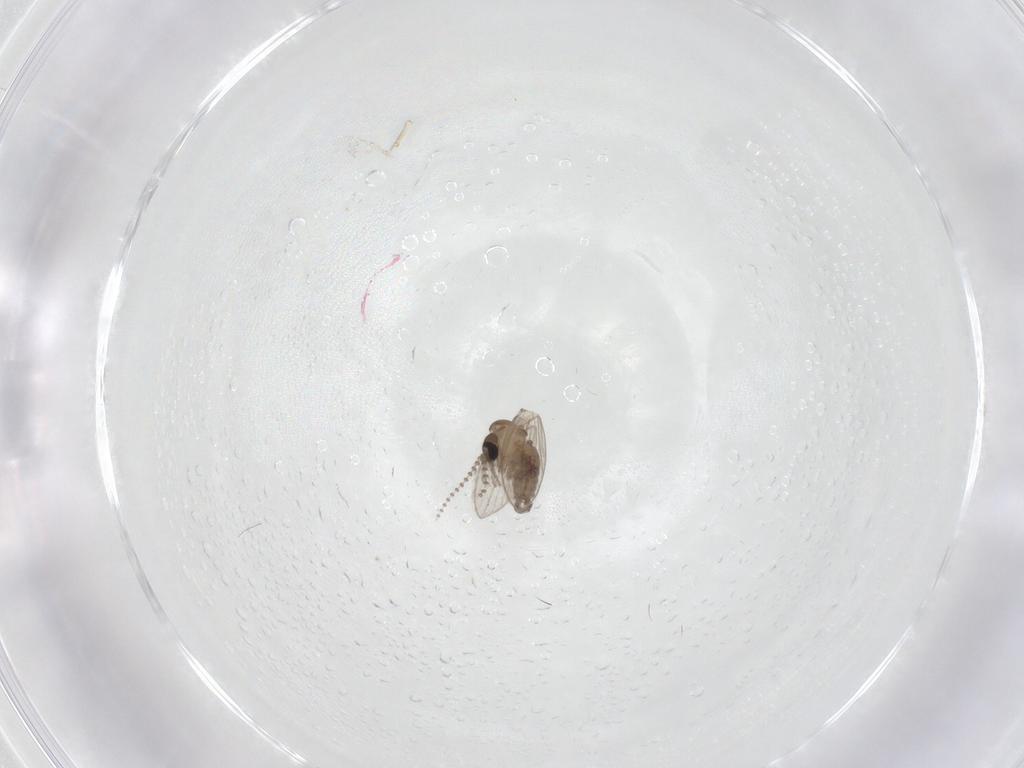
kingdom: Animalia
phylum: Arthropoda
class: Insecta
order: Diptera
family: Psychodidae
